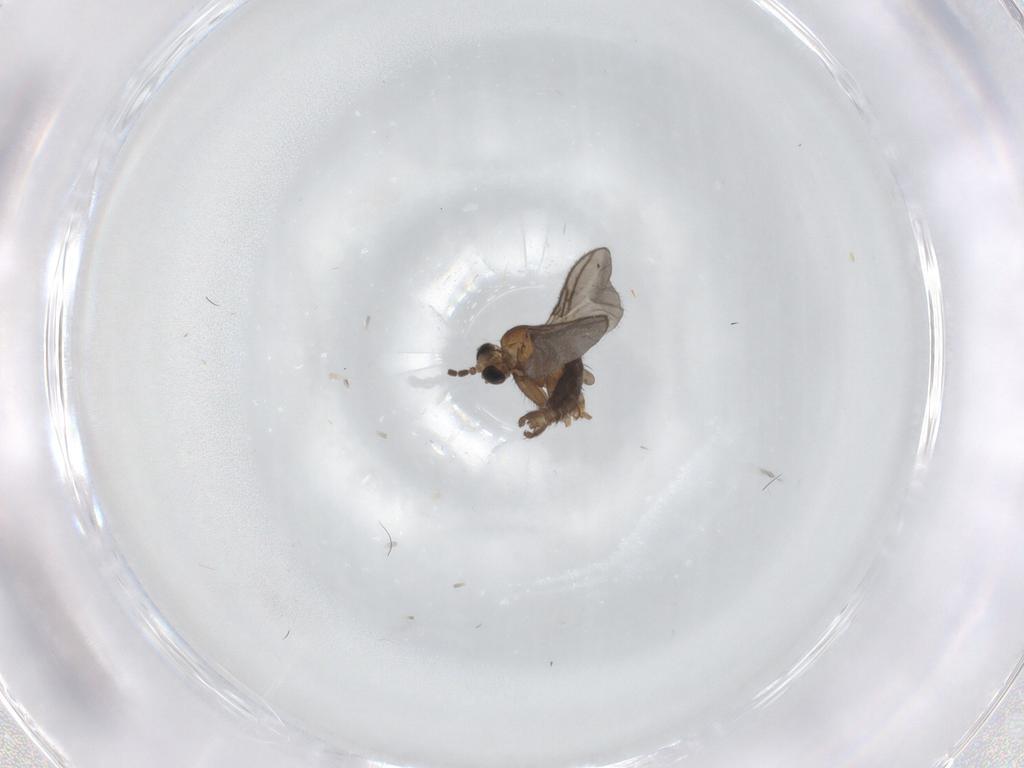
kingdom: Animalia
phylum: Arthropoda
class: Insecta
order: Diptera
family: Sciaridae
